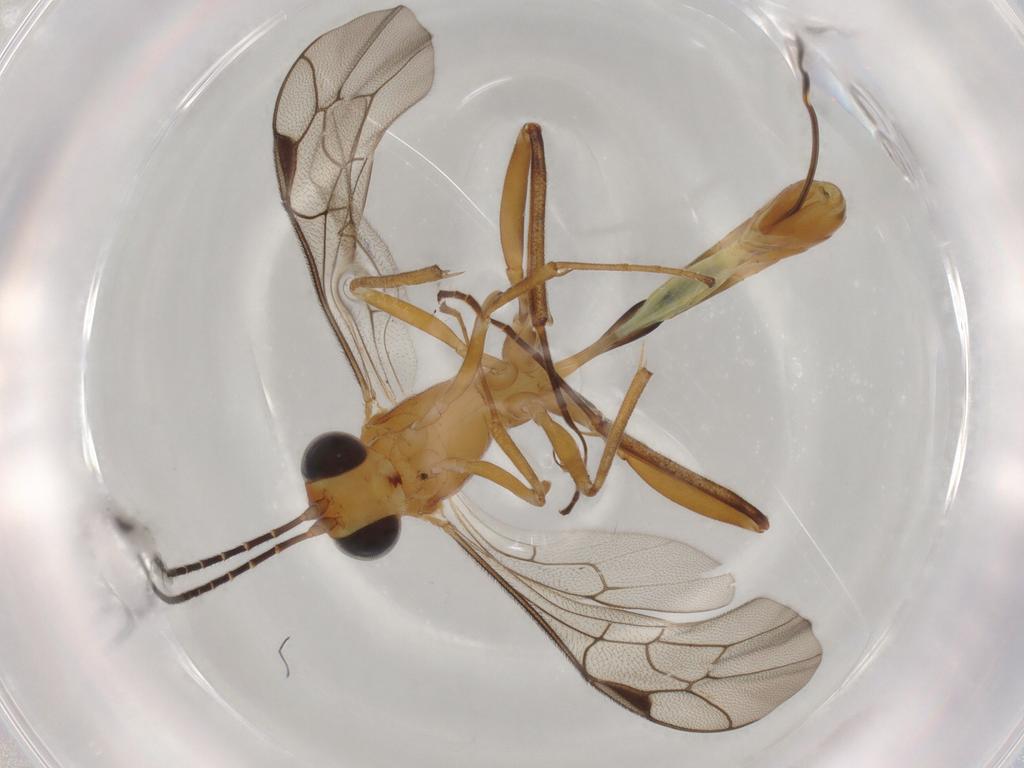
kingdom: Animalia
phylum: Arthropoda
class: Insecta
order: Hymenoptera
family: Ichneumonidae
